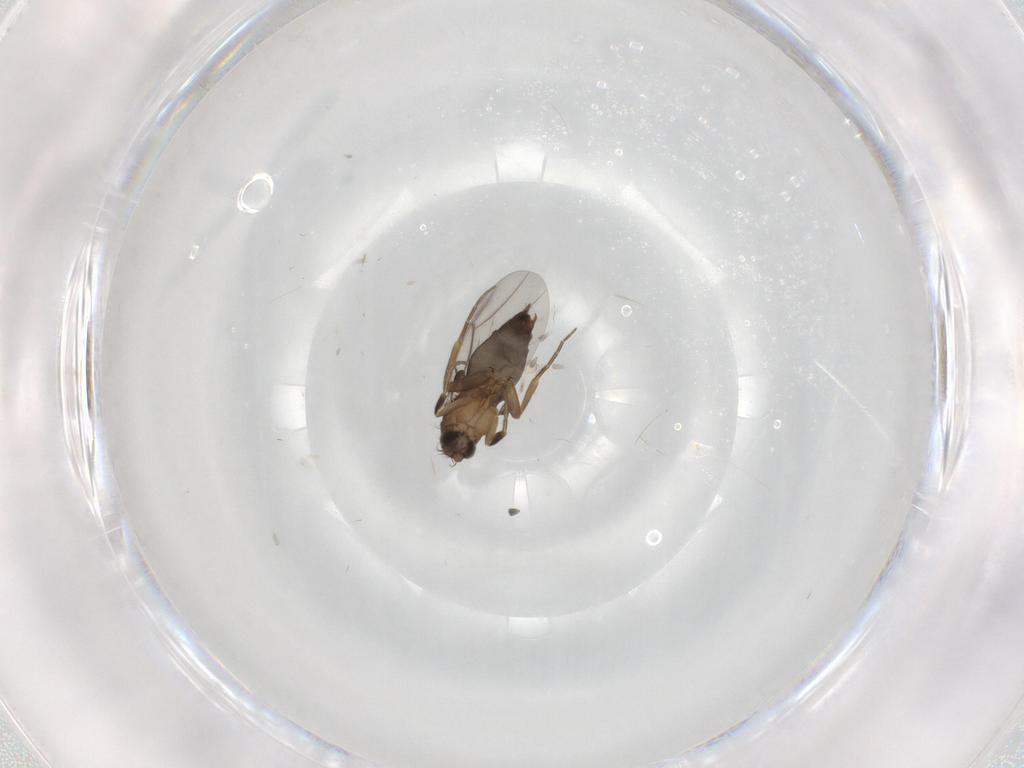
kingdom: Animalia
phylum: Arthropoda
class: Insecta
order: Diptera
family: Phoridae
